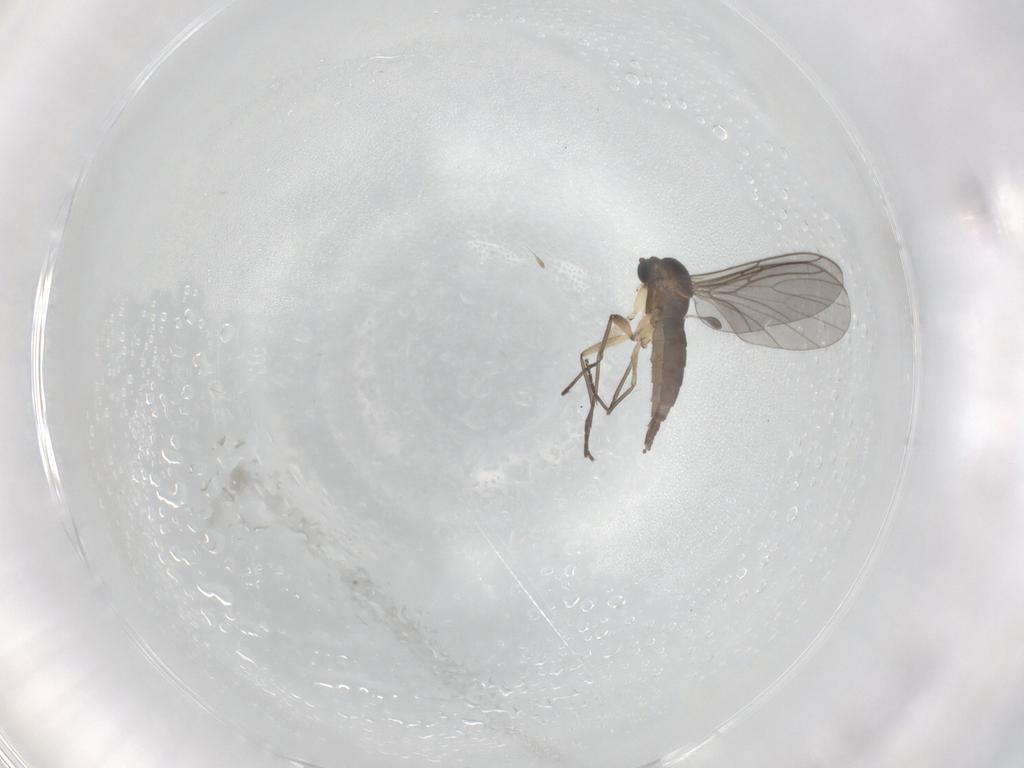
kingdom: Animalia
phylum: Arthropoda
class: Insecta
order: Diptera
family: Sciaridae
